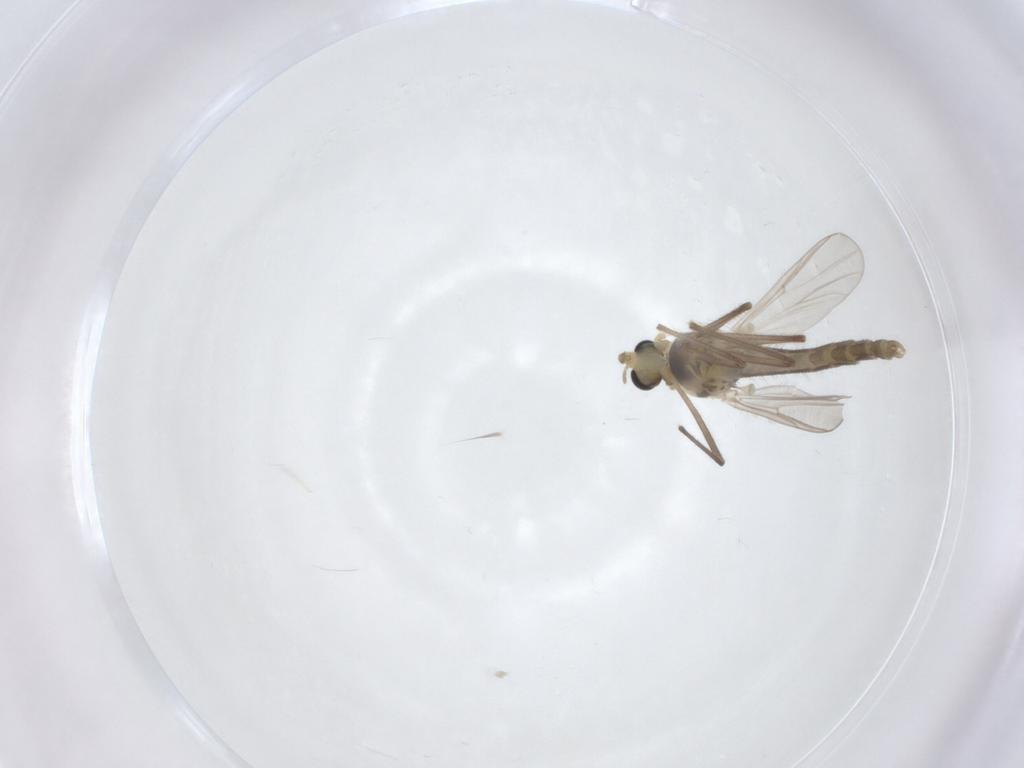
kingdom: Animalia
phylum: Arthropoda
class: Insecta
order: Diptera
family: Chironomidae
